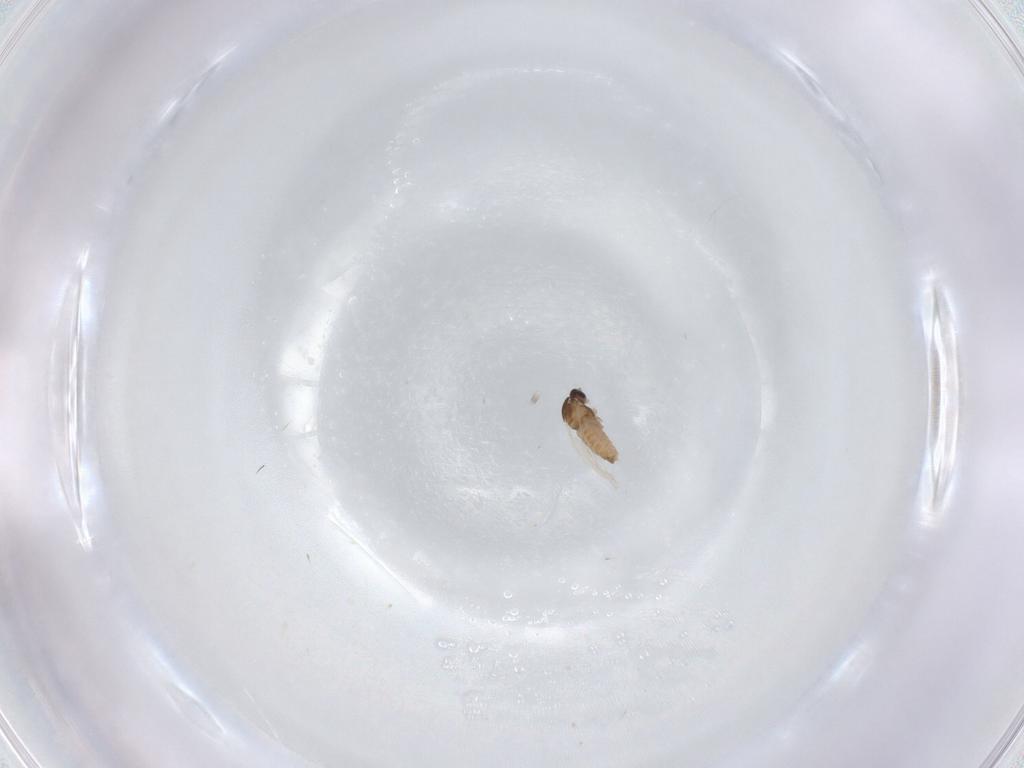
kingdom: Animalia
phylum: Arthropoda
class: Insecta
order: Diptera
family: Cecidomyiidae
